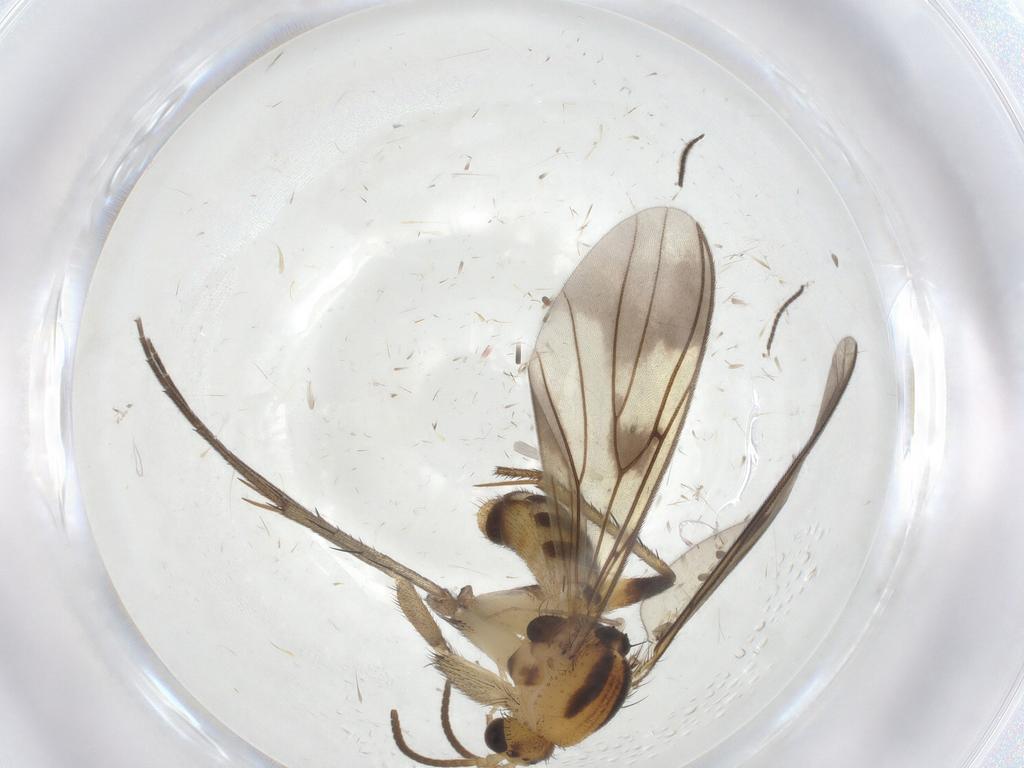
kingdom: Animalia
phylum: Arthropoda
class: Insecta
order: Diptera
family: Mycetophilidae
